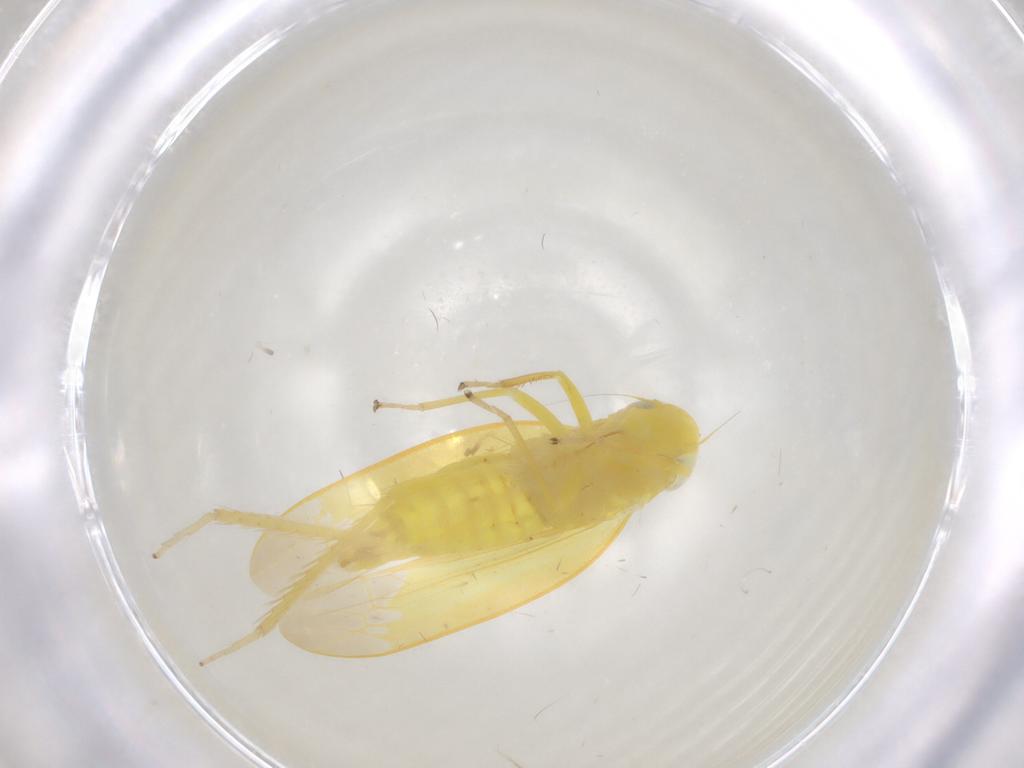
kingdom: Animalia
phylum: Arthropoda
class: Insecta
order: Hemiptera
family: Cicadellidae
